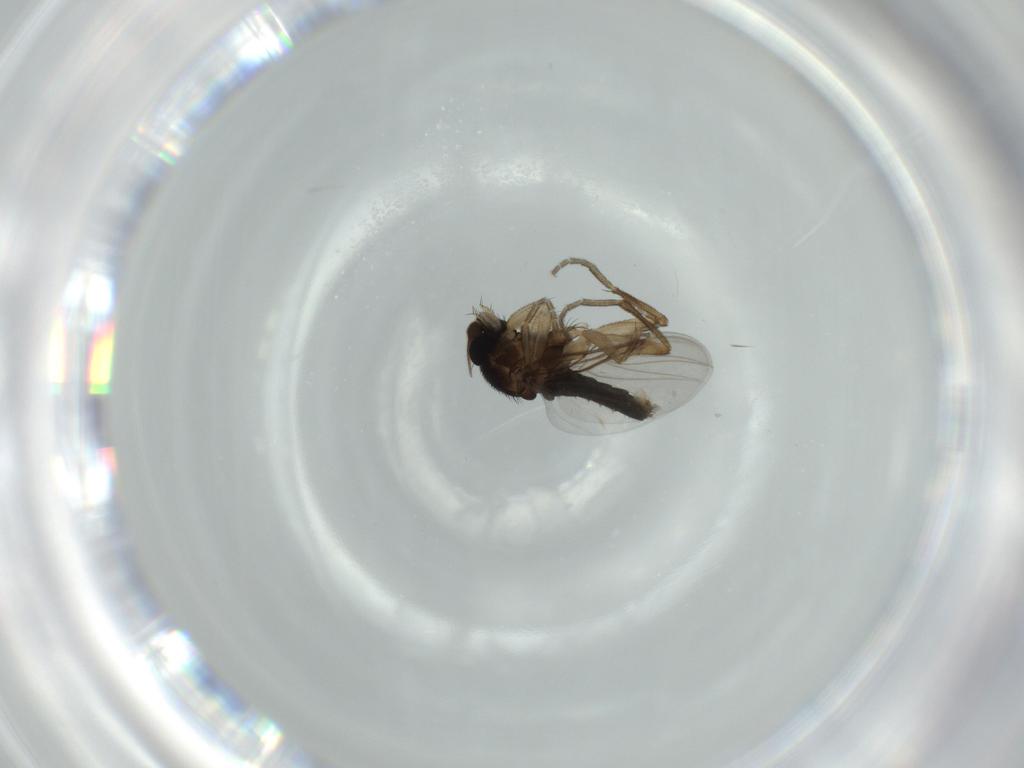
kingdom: Animalia
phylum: Arthropoda
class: Insecta
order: Diptera
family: Phoridae
